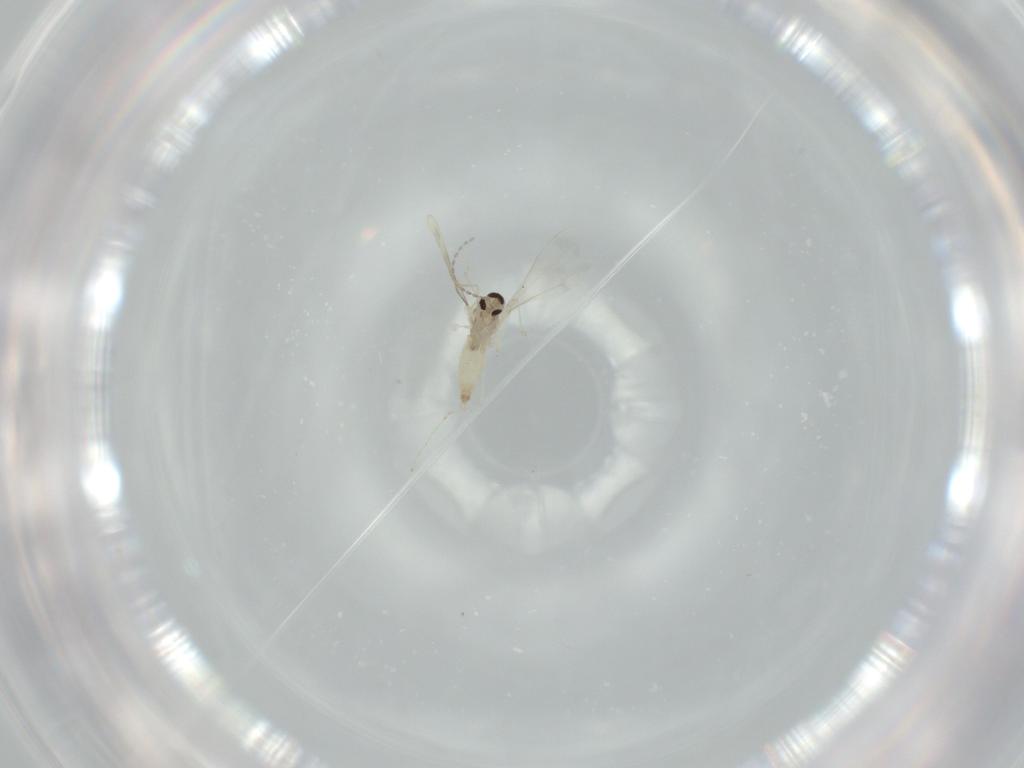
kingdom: Animalia
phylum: Arthropoda
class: Insecta
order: Diptera
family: Cecidomyiidae
